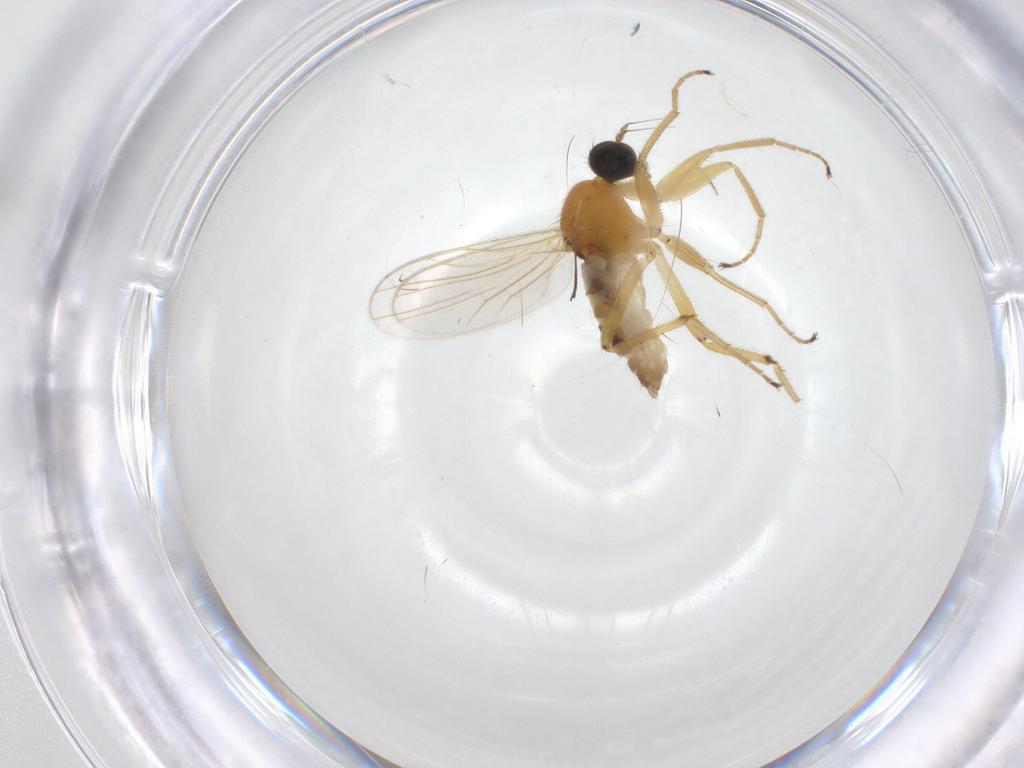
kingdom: Animalia
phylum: Arthropoda
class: Insecta
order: Diptera
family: Hybotidae
